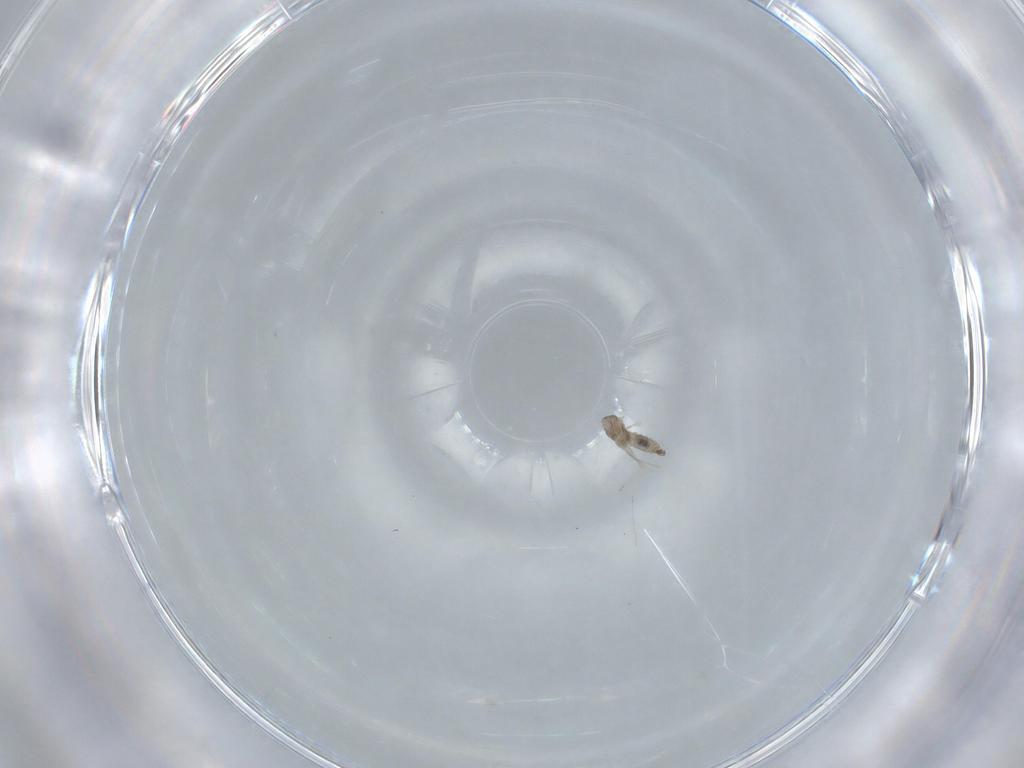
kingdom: Animalia
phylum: Arthropoda
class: Insecta
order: Diptera
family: Cecidomyiidae
